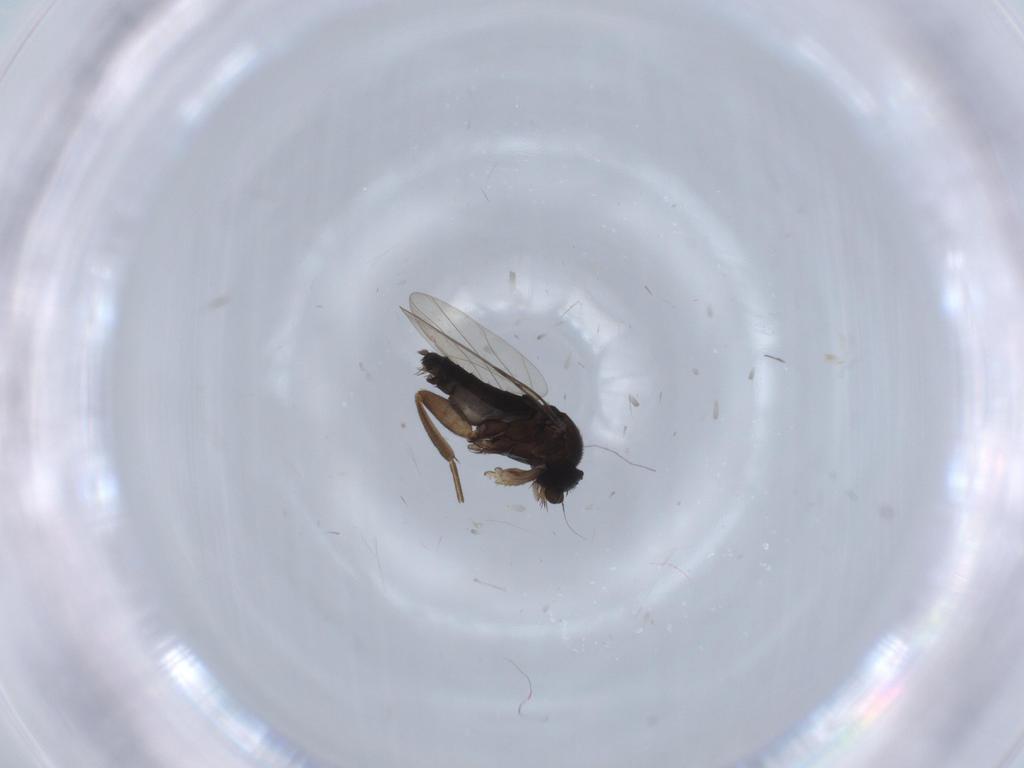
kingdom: Animalia
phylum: Arthropoda
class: Insecta
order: Diptera
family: Phoridae
